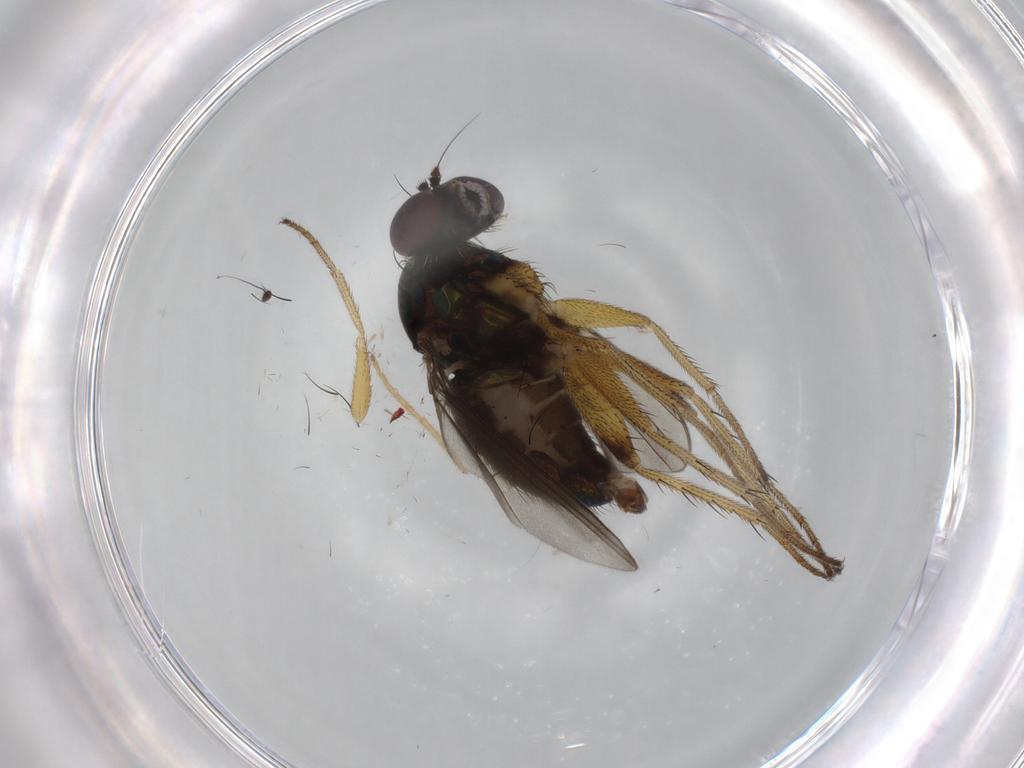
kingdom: Animalia
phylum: Arthropoda
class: Insecta
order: Diptera
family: Dolichopodidae
